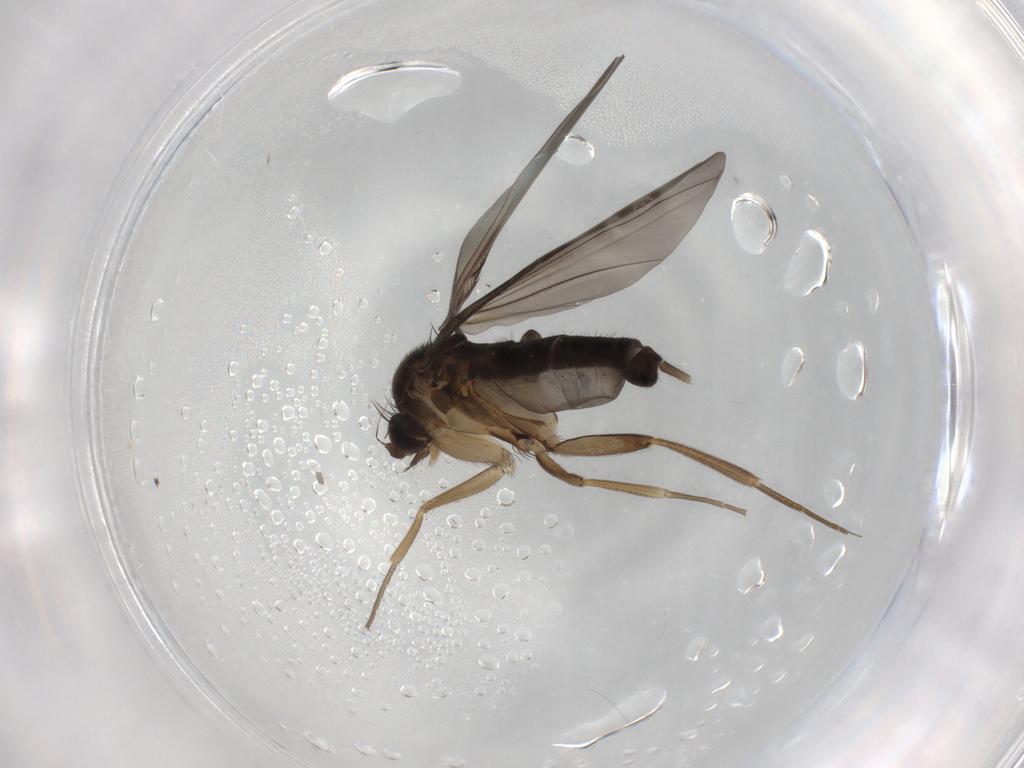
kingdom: Animalia
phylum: Arthropoda
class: Insecta
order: Diptera
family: Phoridae
